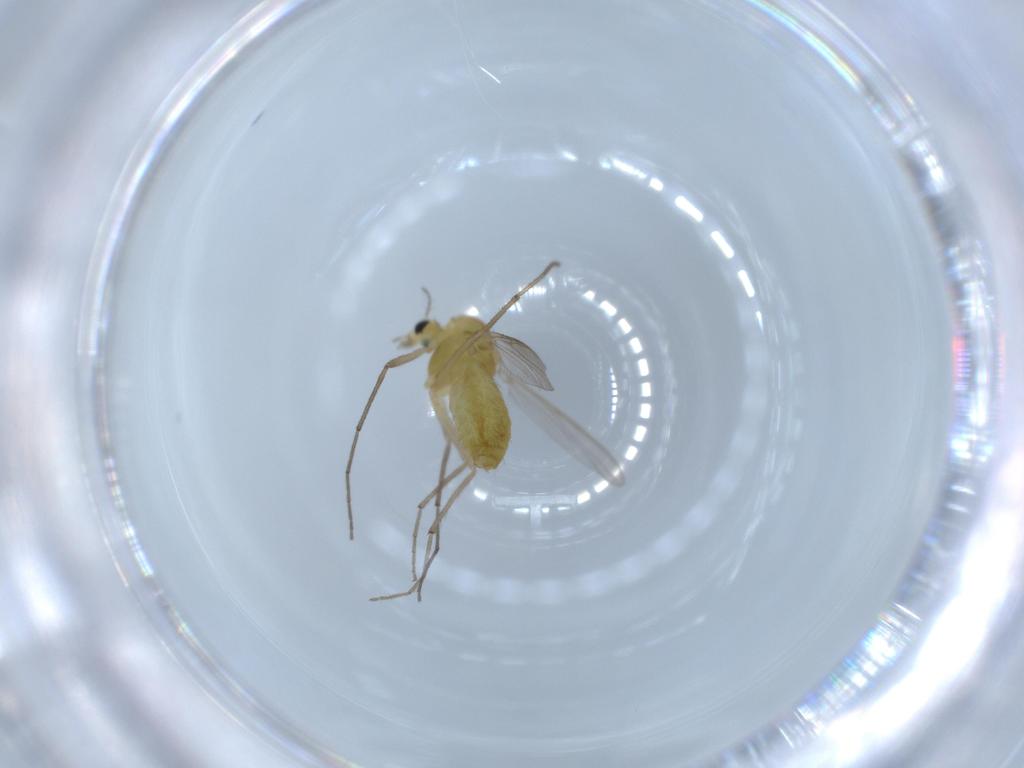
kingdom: Animalia
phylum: Arthropoda
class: Insecta
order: Diptera
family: Chironomidae
